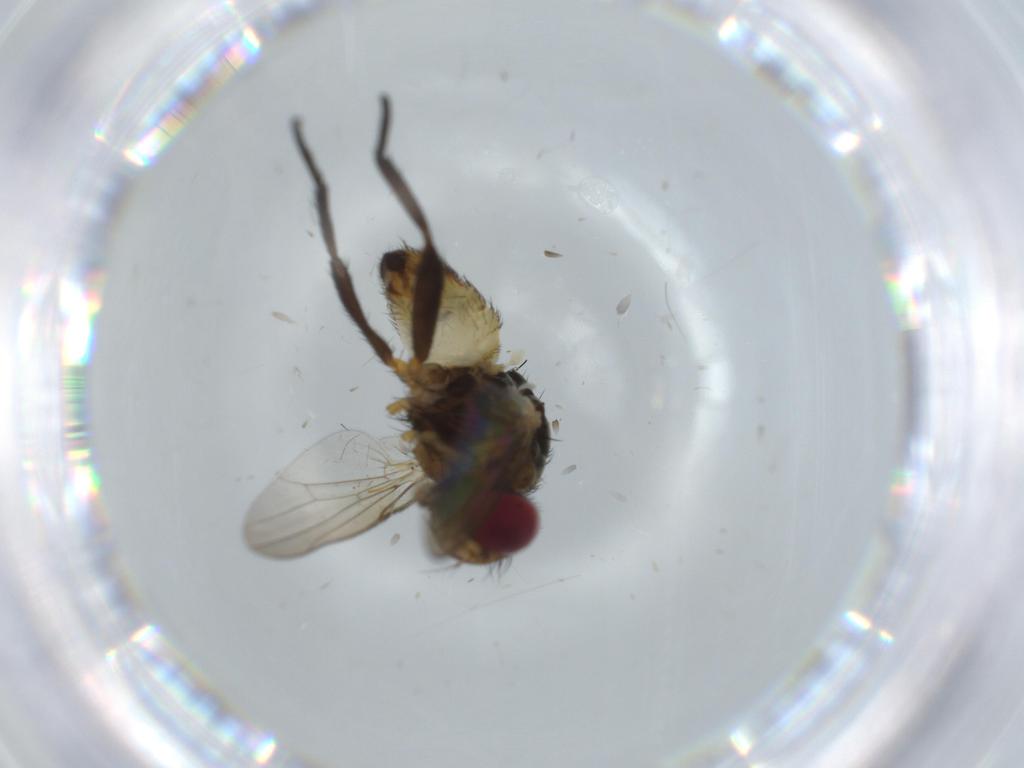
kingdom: Animalia
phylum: Arthropoda
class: Insecta
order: Diptera
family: Anthomyiidae
